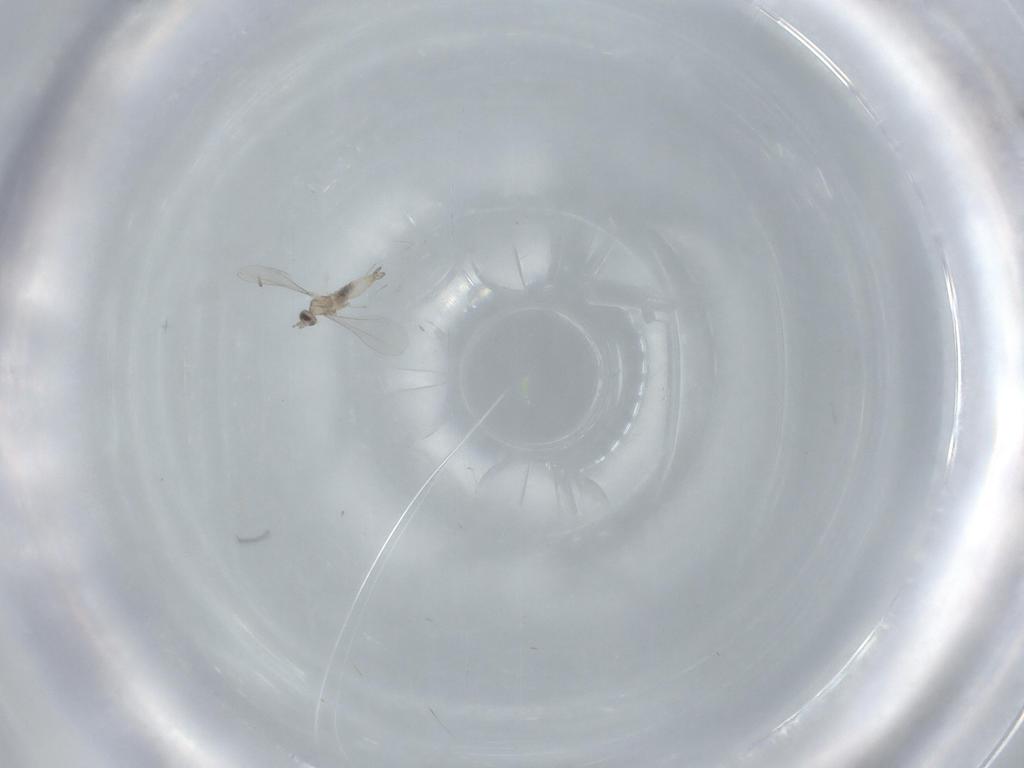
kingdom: Animalia
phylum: Arthropoda
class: Insecta
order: Diptera
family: Cecidomyiidae
